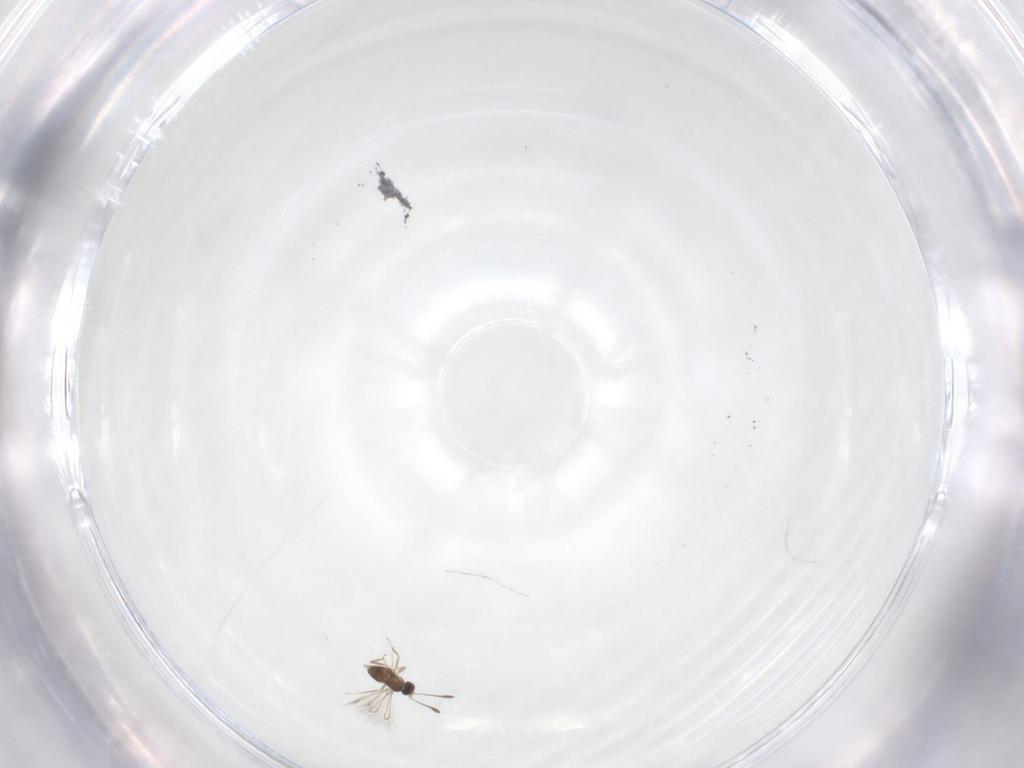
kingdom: Animalia
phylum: Arthropoda
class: Insecta
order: Hymenoptera
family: Mymaridae
